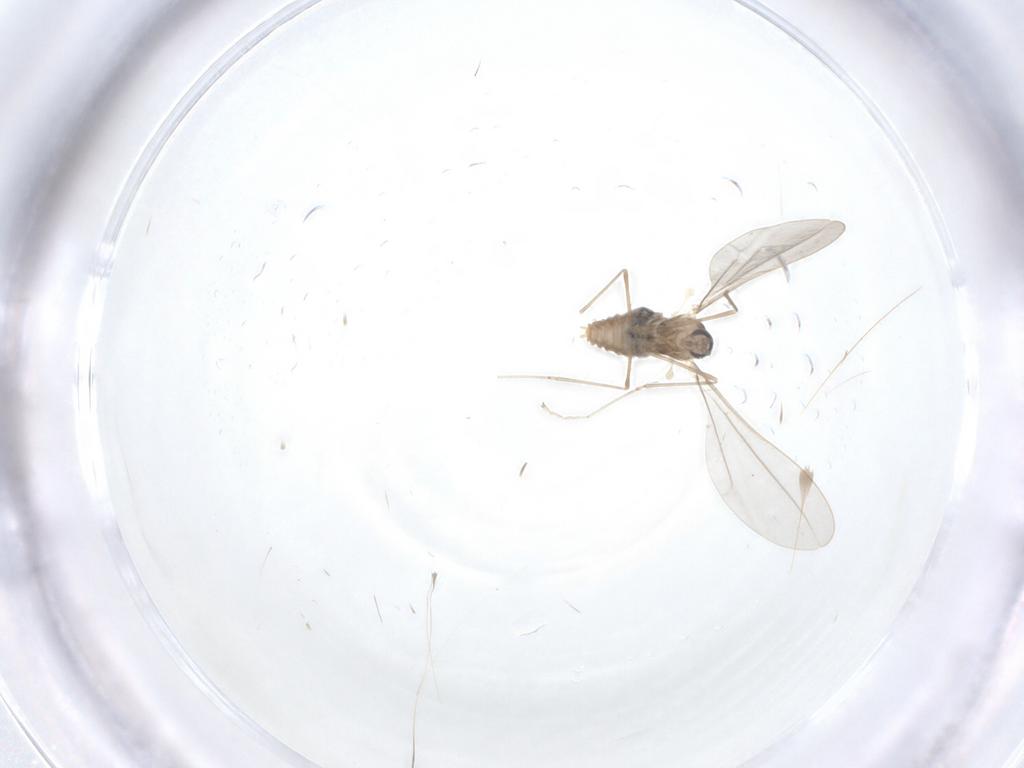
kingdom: Animalia
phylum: Arthropoda
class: Insecta
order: Diptera
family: Cecidomyiidae
